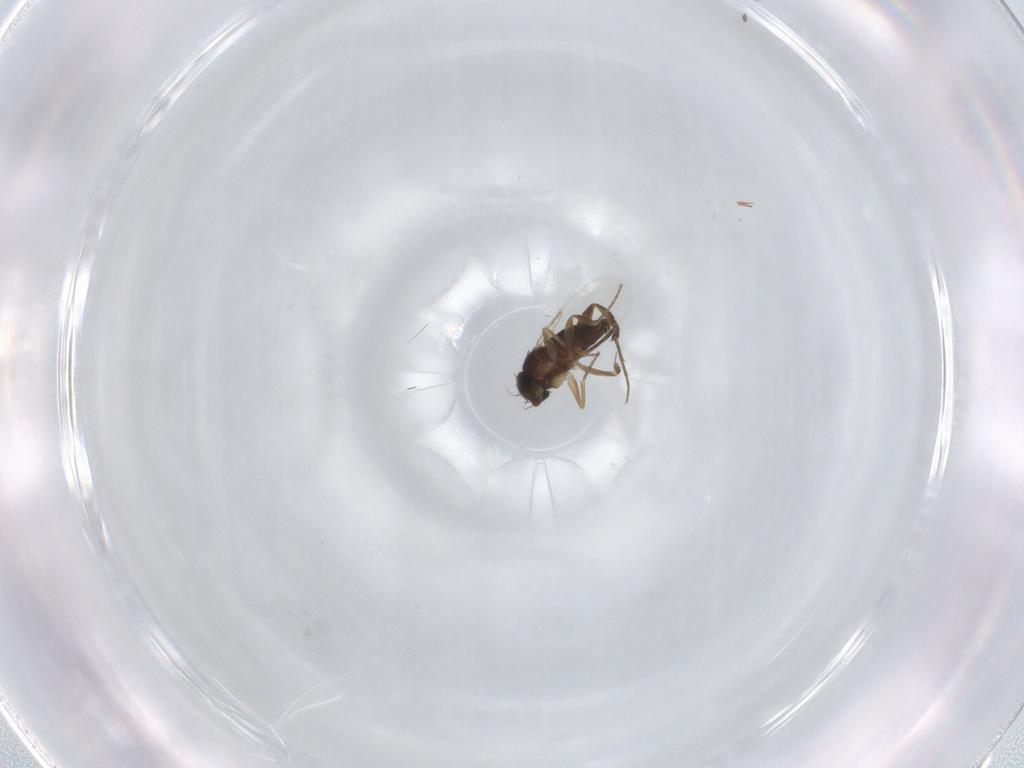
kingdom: Animalia
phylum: Arthropoda
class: Insecta
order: Diptera
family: Phoridae
